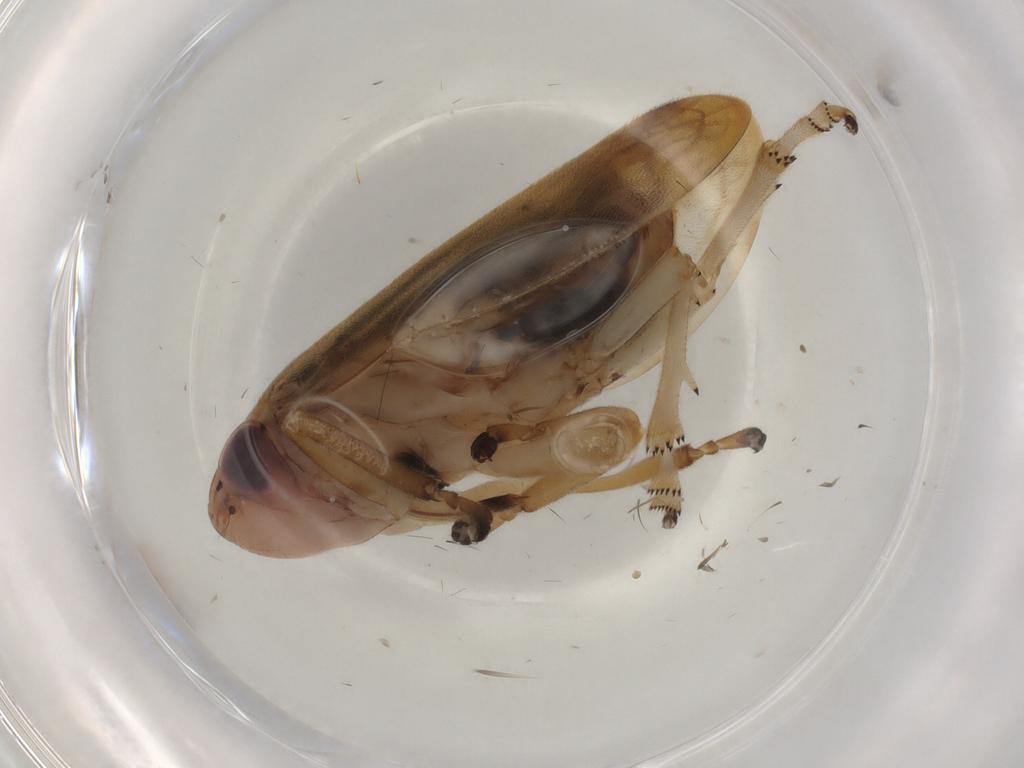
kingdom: Animalia
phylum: Arthropoda
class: Insecta
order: Hemiptera
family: Aphrophoridae
